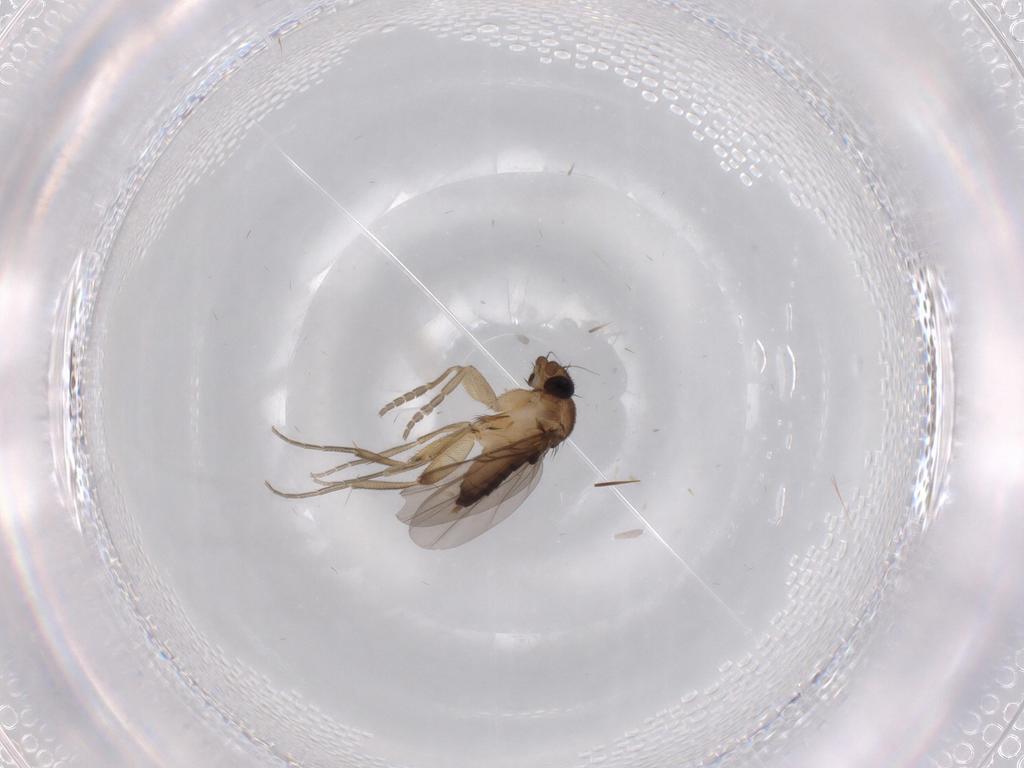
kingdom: Animalia
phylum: Arthropoda
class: Insecta
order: Diptera
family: Phoridae
